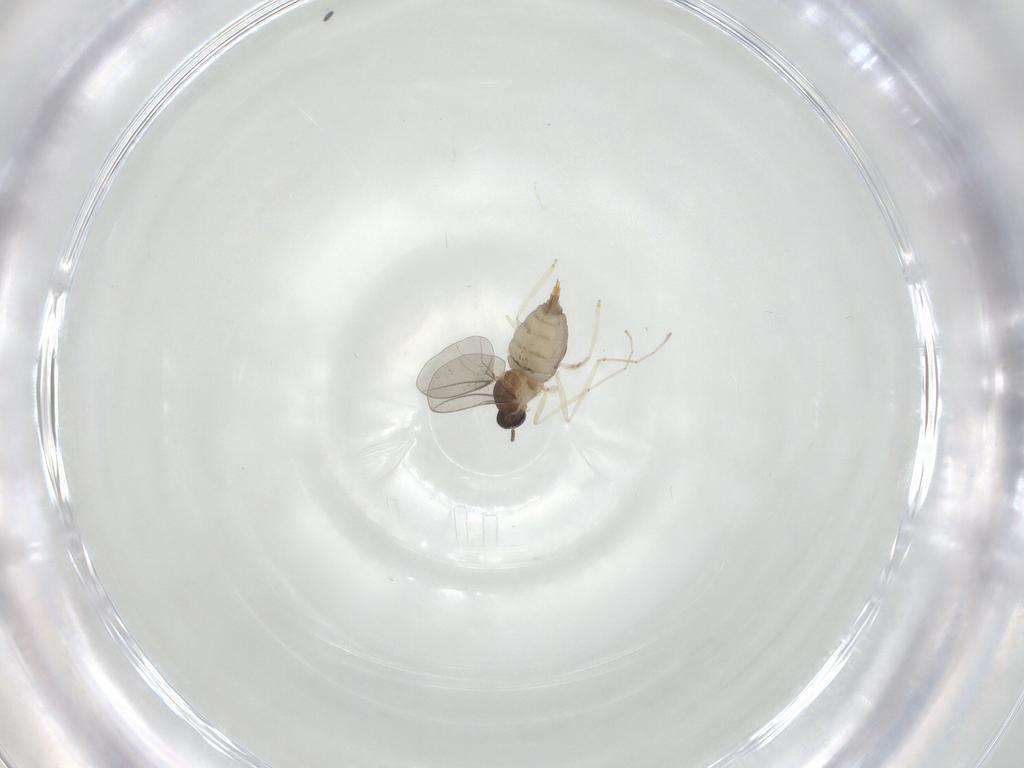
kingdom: Animalia
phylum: Arthropoda
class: Insecta
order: Diptera
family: Cecidomyiidae
